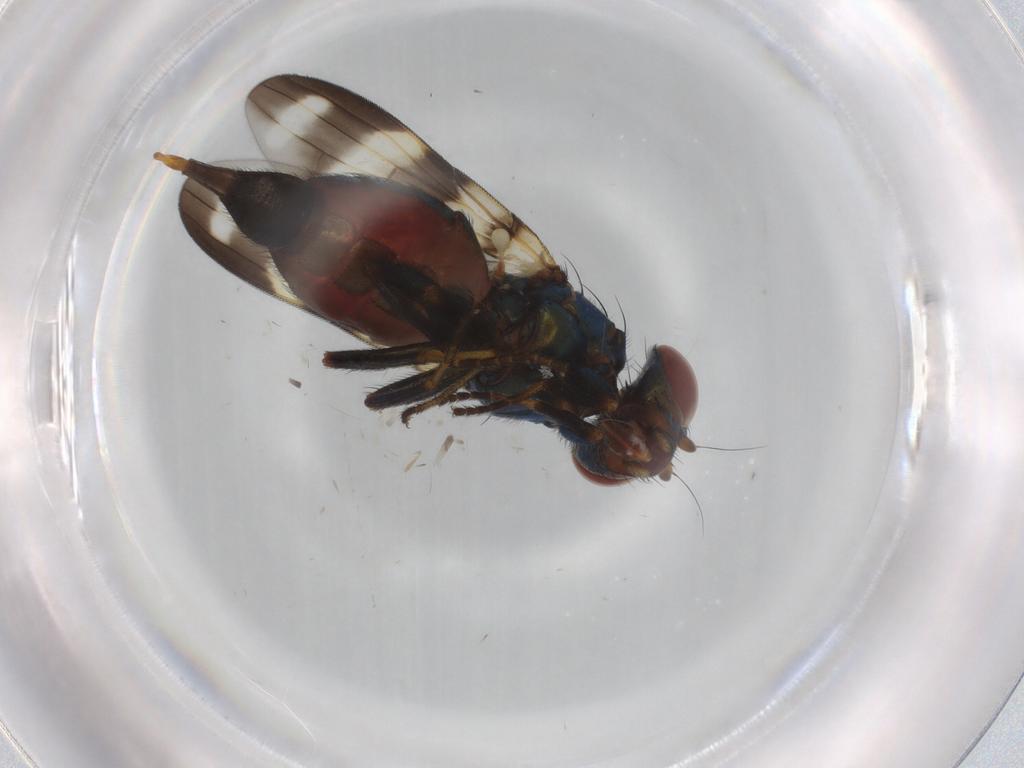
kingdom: Animalia
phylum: Arthropoda
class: Insecta
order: Diptera
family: Ulidiidae
